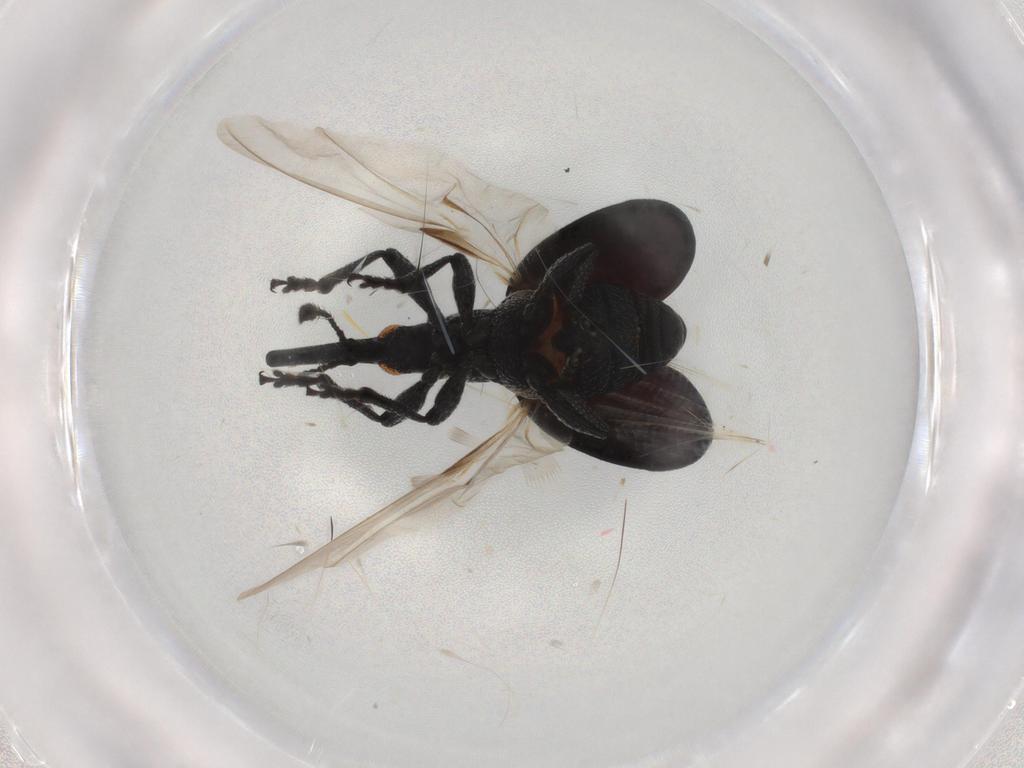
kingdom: Animalia
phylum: Arthropoda
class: Insecta
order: Coleoptera
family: Brentidae
